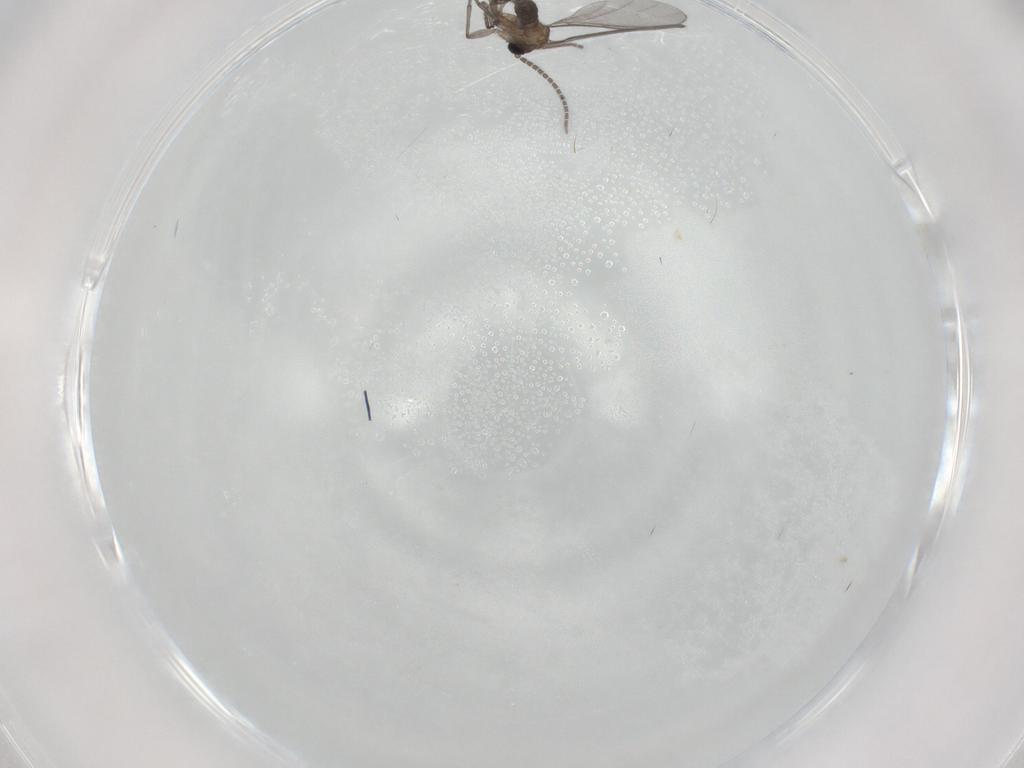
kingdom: Animalia
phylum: Arthropoda
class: Insecta
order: Diptera
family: Sciaridae
